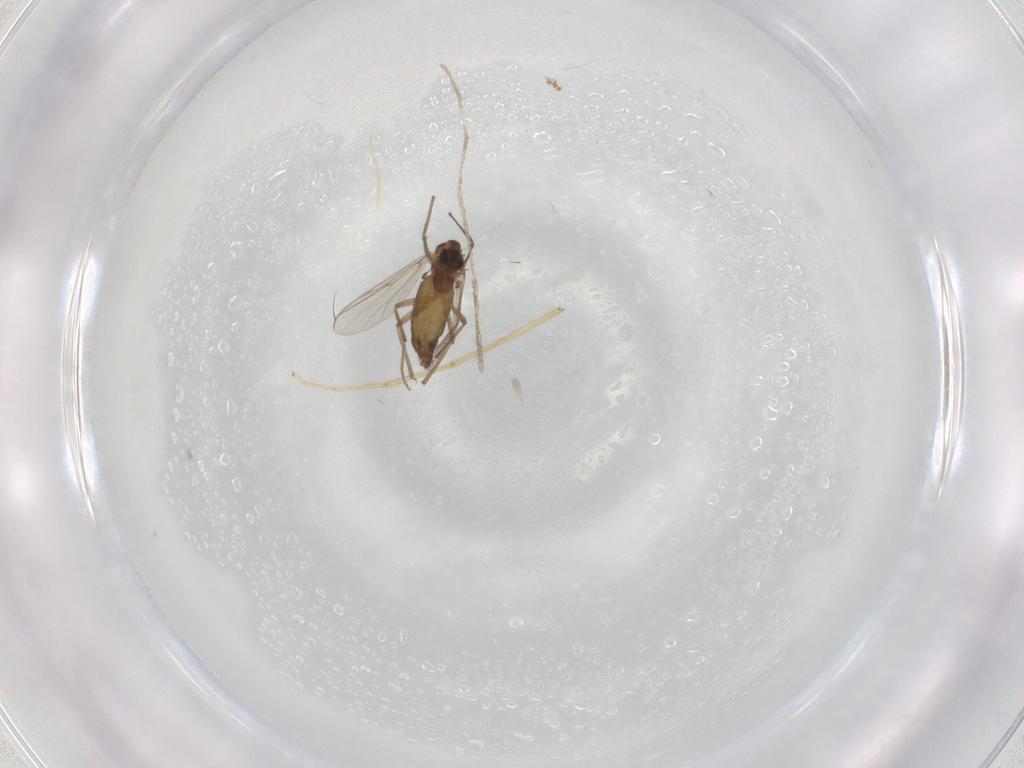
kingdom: Animalia
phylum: Arthropoda
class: Insecta
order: Diptera
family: Chironomidae
